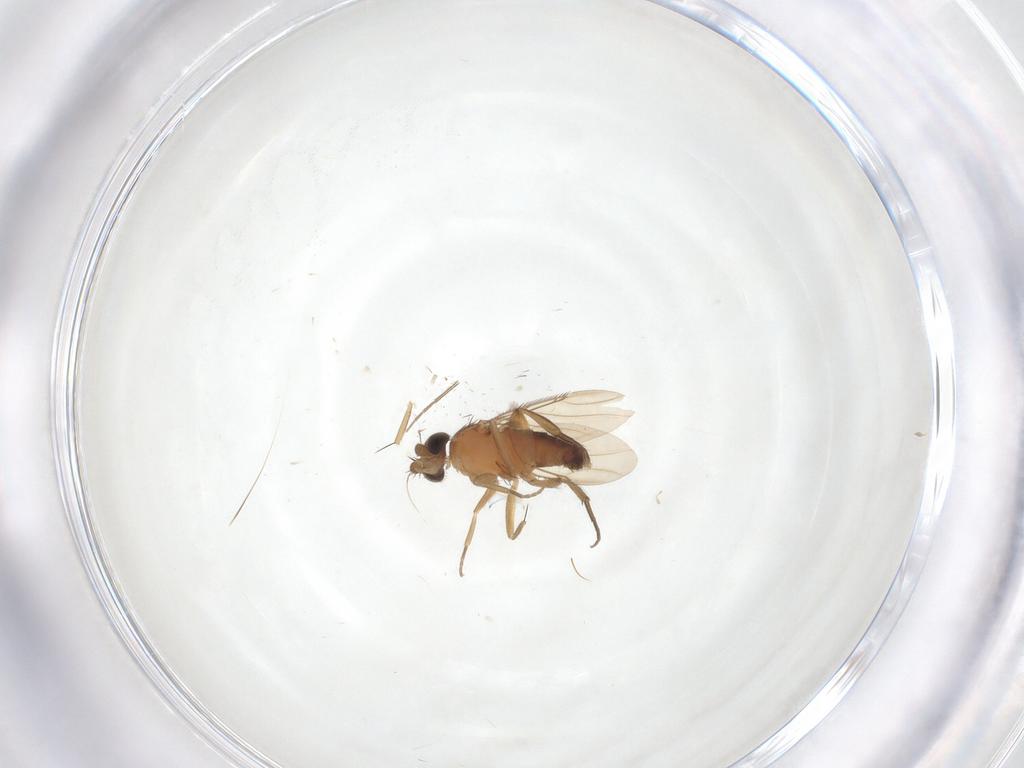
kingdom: Animalia
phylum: Arthropoda
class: Insecta
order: Diptera
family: Phoridae
